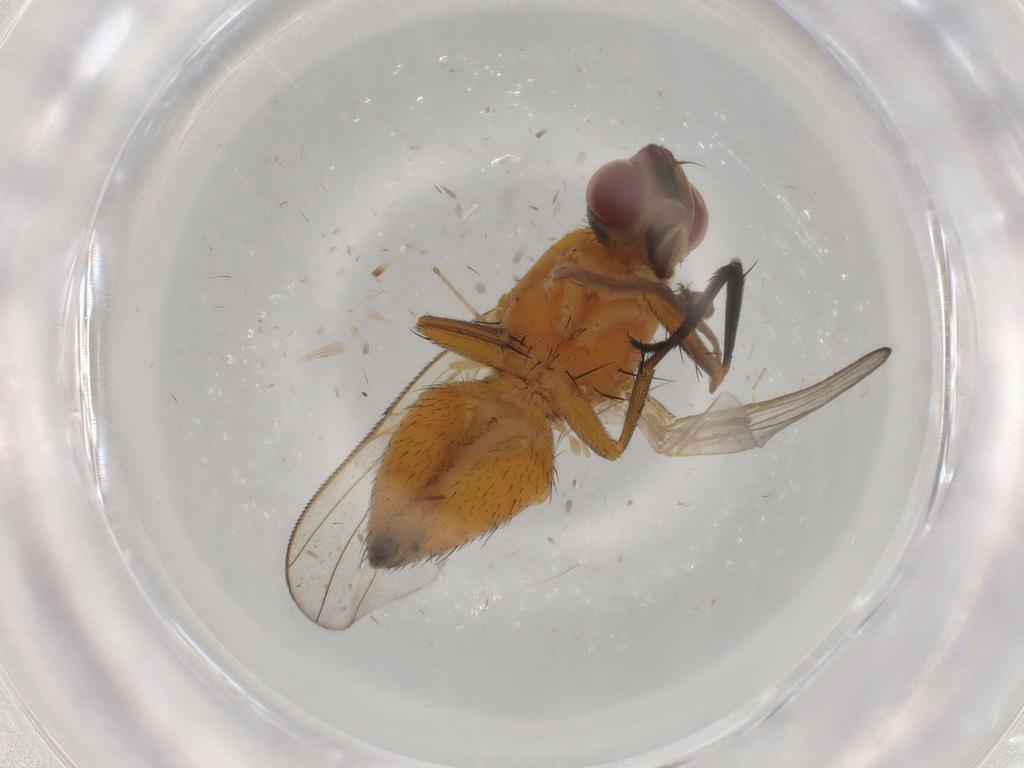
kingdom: Animalia
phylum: Arthropoda
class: Insecta
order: Diptera
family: Muscidae
